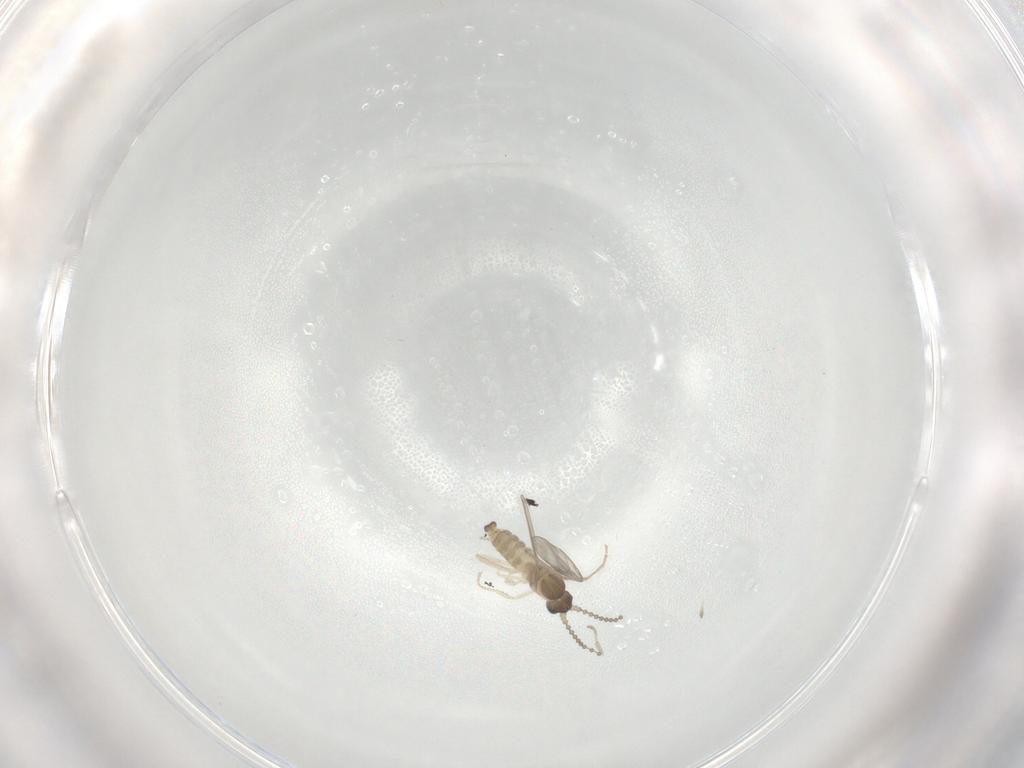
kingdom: Animalia
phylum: Arthropoda
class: Insecta
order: Diptera
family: Cecidomyiidae
